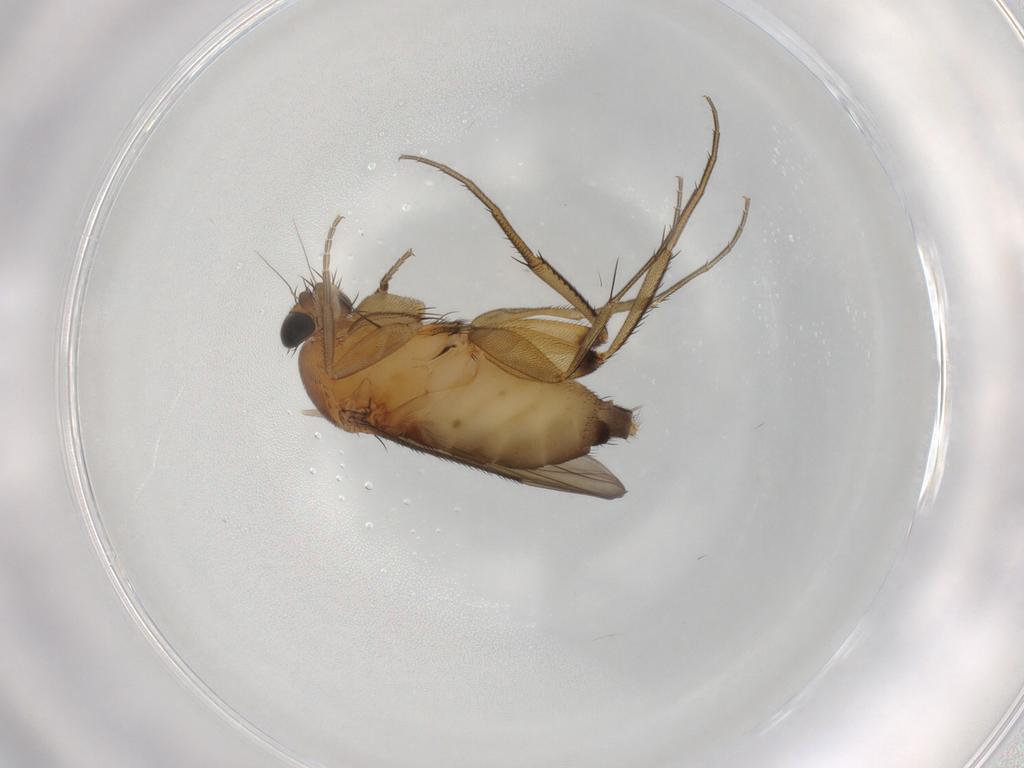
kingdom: Animalia
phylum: Arthropoda
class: Insecta
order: Diptera
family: Phoridae
